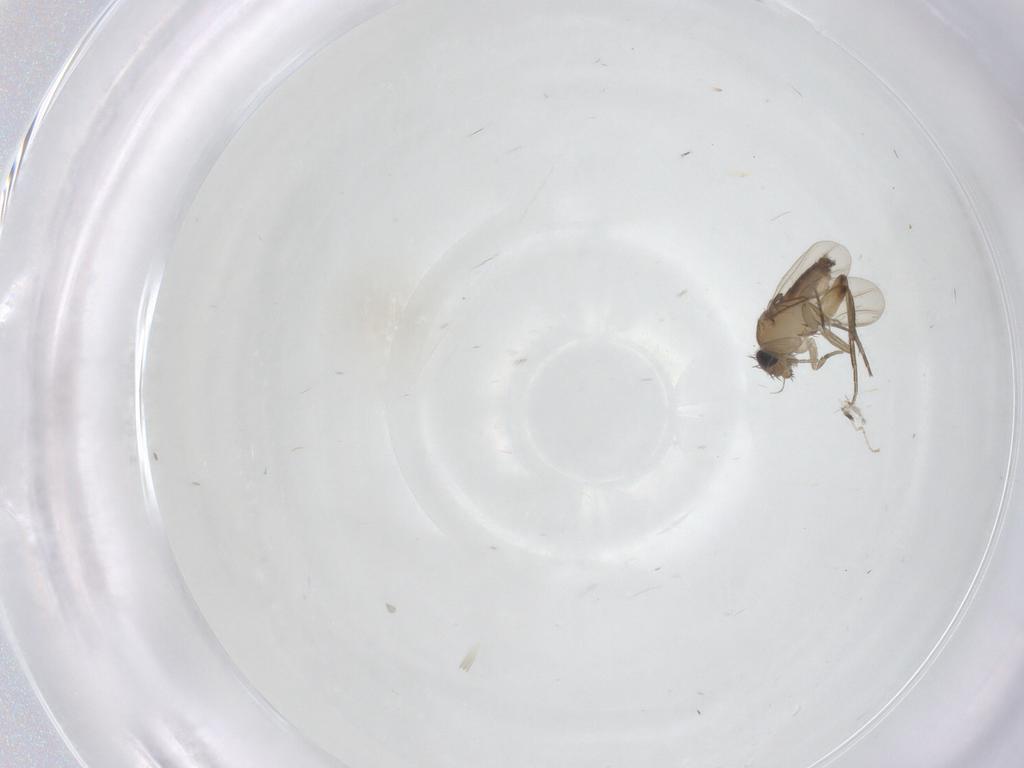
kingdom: Animalia
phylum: Arthropoda
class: Insecta
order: Diptera
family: Phoridae
